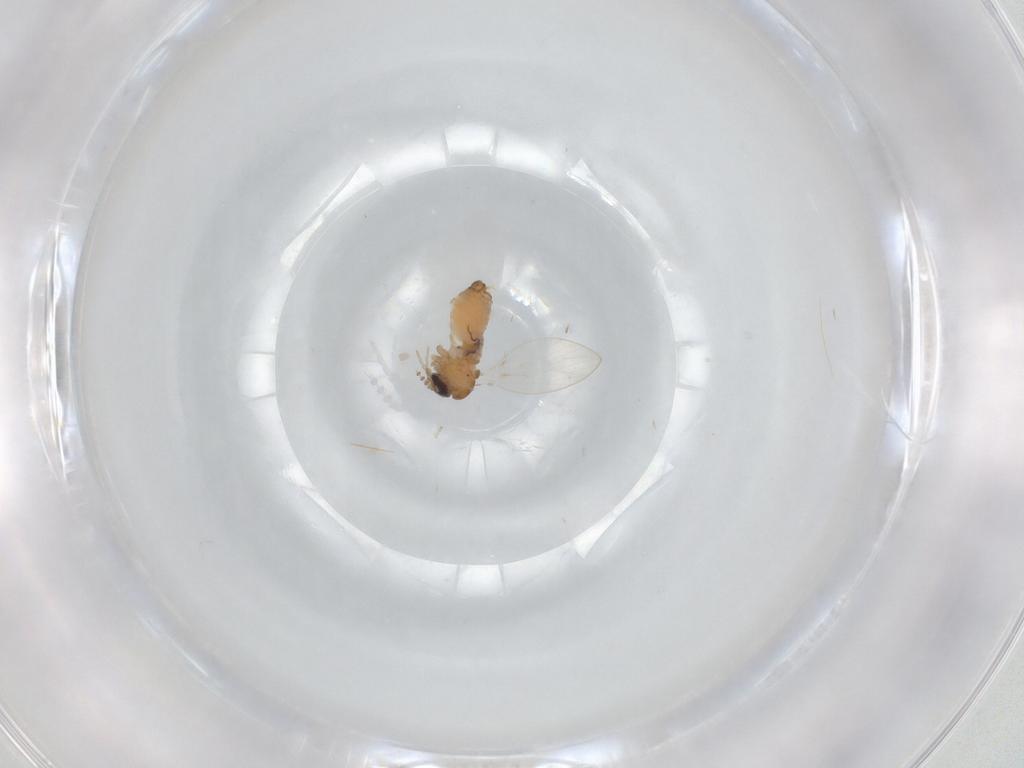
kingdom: Animalia
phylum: Arthropoda
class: Insecta
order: Diptera
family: Psychodidae
